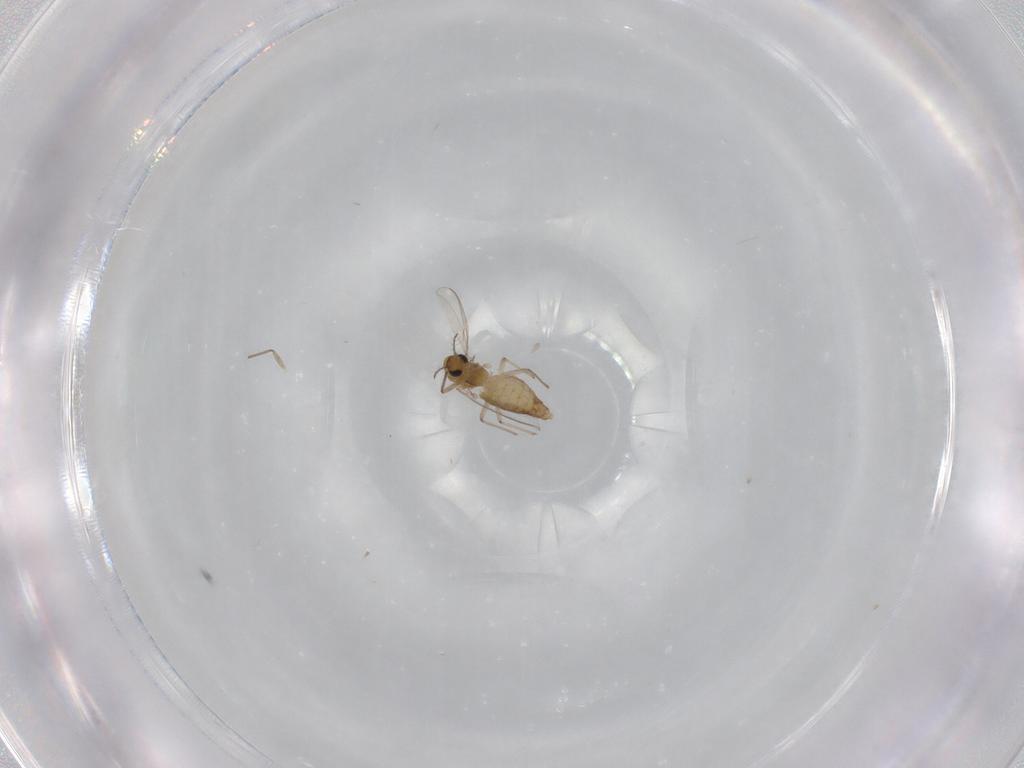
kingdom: Animalia
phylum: Arthropoda
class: Insecta
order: Diptera
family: Chironomidae
